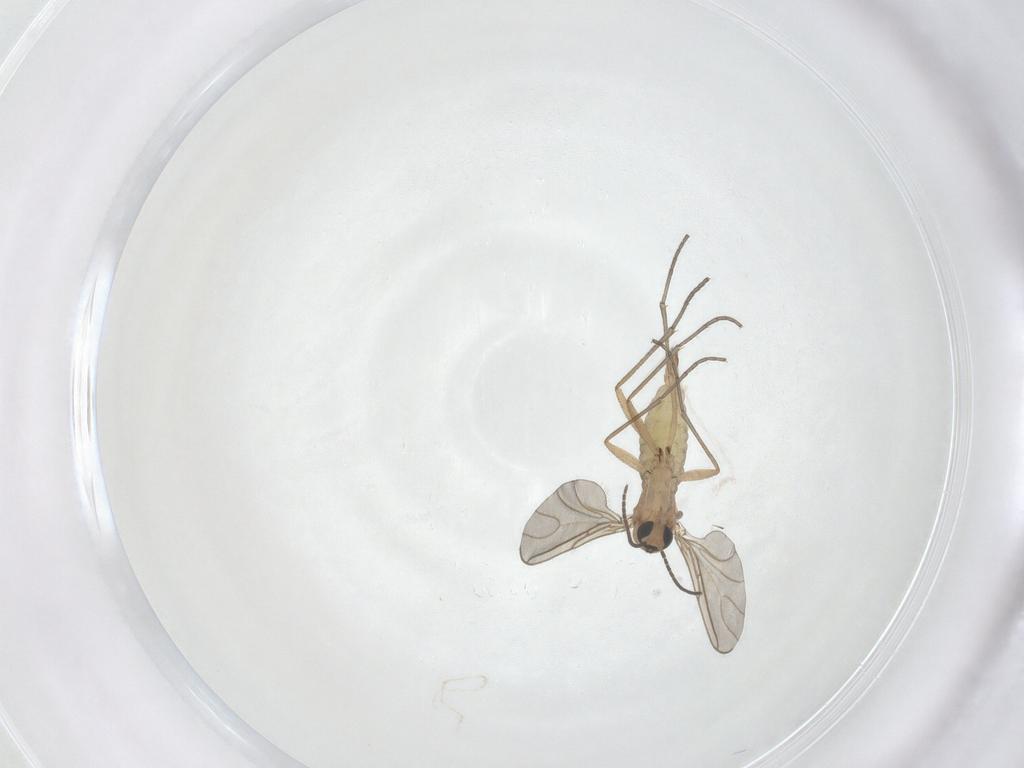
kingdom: Animalia
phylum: Arthropoda
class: Insecta
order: Diptera
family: Sciaridae
